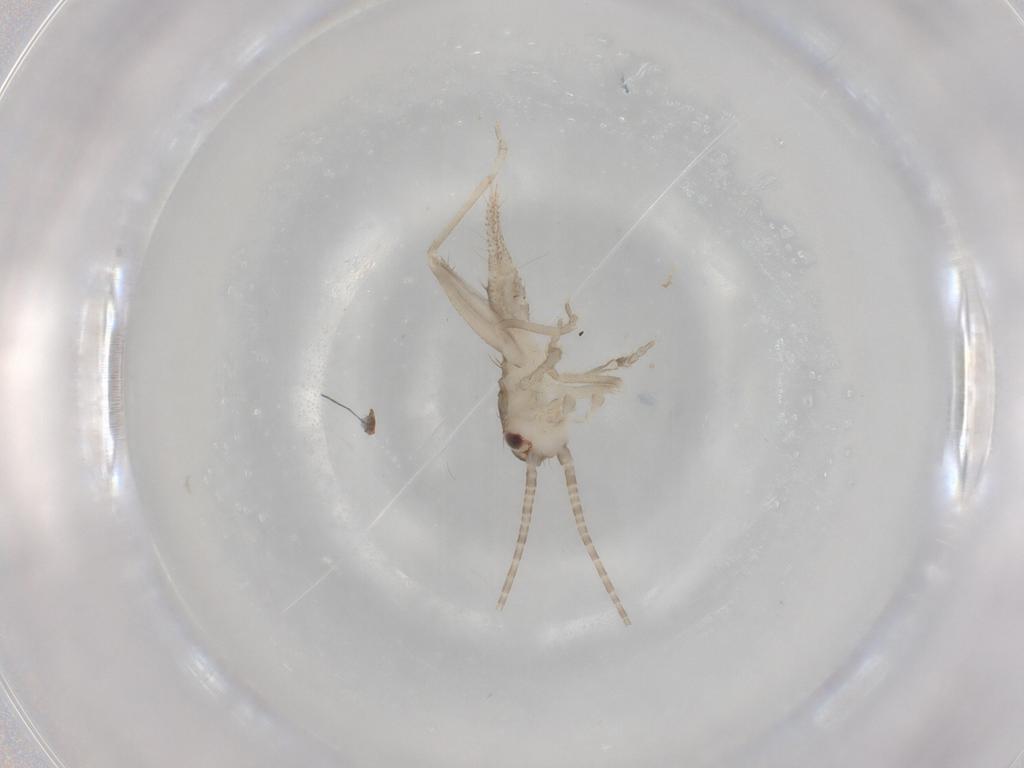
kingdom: Animalia
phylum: Arthropoda
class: Insecta
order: Orthoptera
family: Gryllidae
